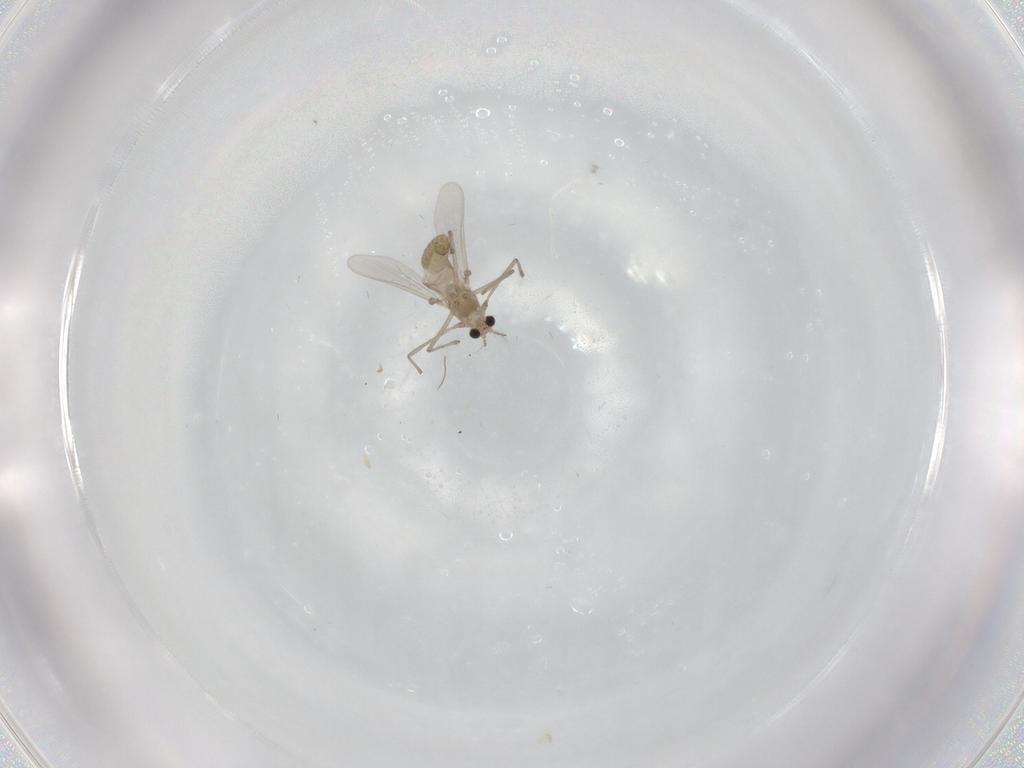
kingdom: Animalia
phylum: Arthropoda
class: Insecta
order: Diptera
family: Chironomidae
